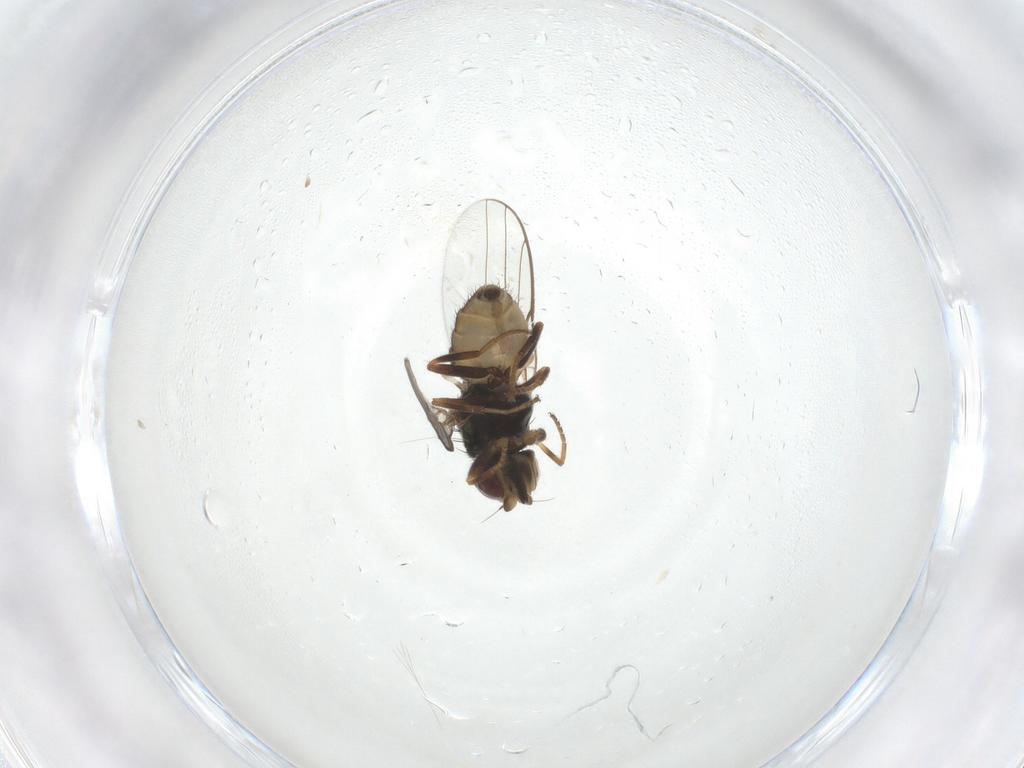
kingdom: Animalia
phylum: Arthropoda
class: Insecta
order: Diptera
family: Chloropidae
